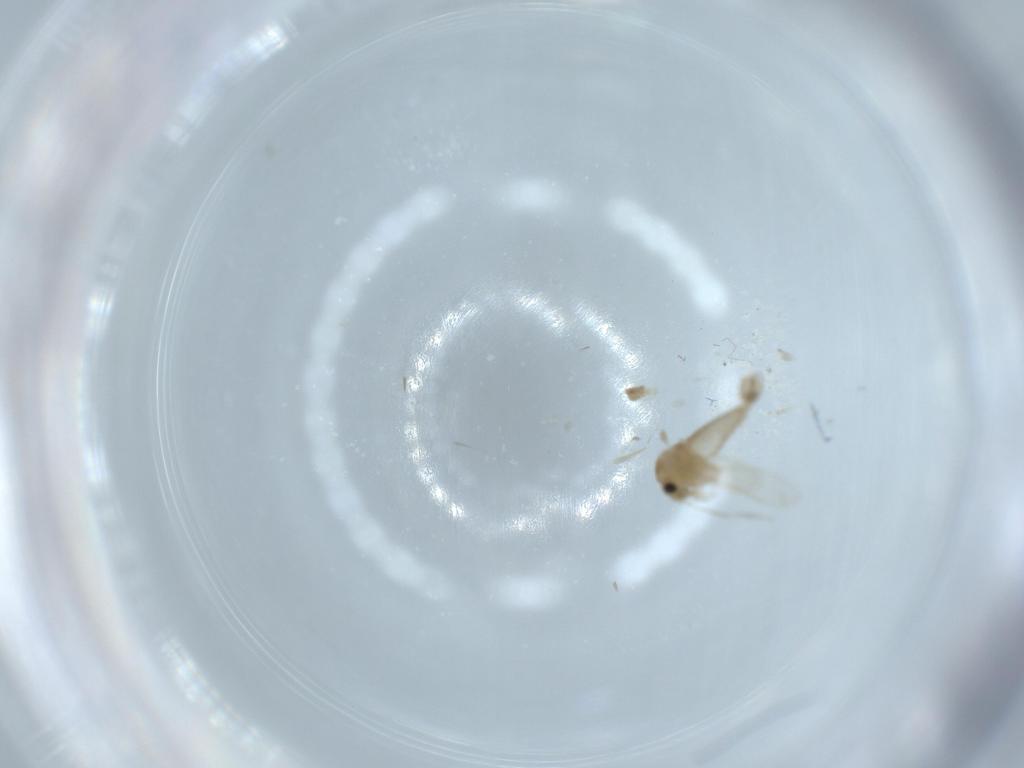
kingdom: Animalia
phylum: Arthropoda
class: Insecta
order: Diptera
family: Psychodidae
